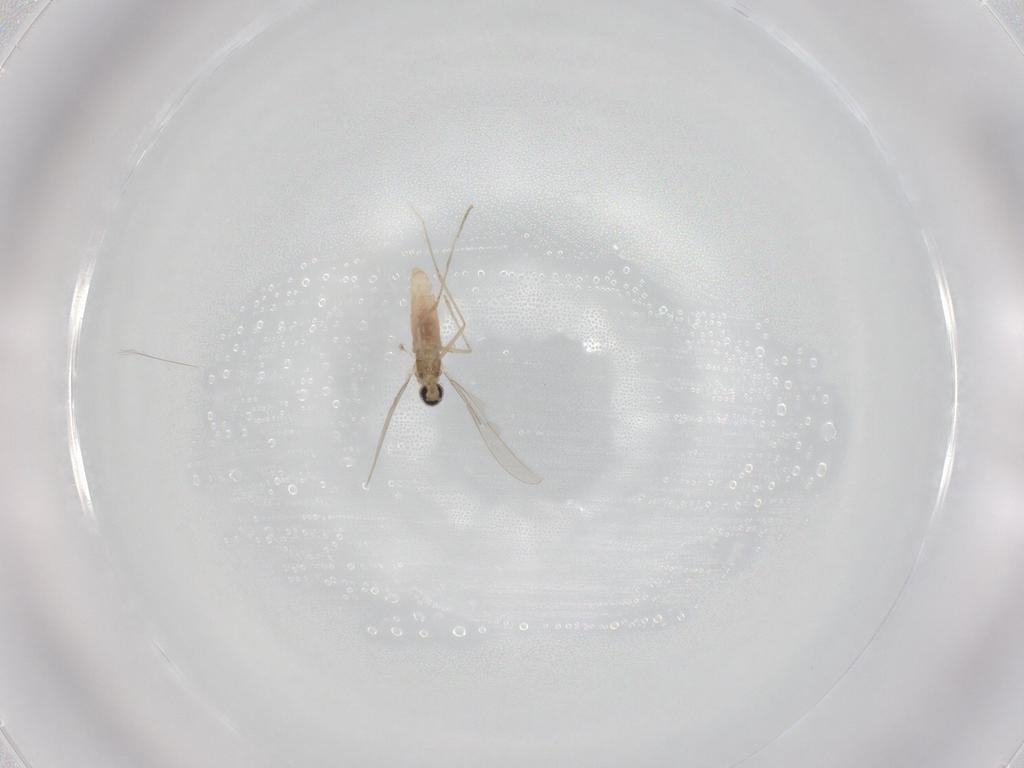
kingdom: Animalia
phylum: Arthropoda
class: Insecta
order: Diptera
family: Cecidomyiidae
